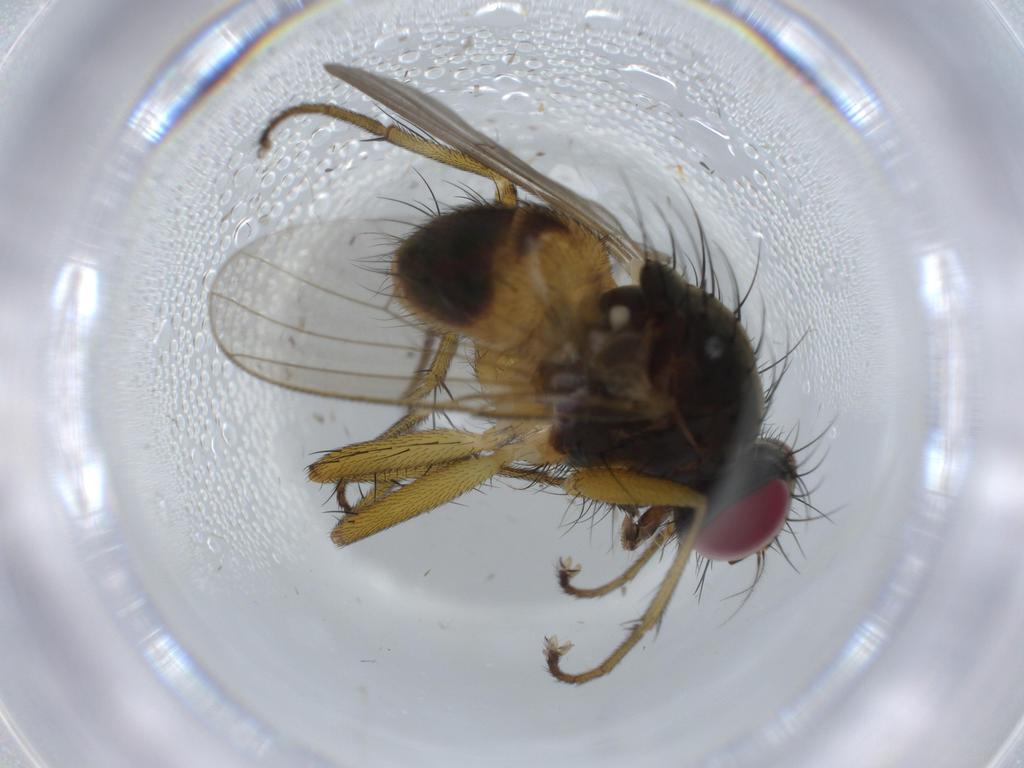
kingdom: Animalia
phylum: Arthropoda
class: Insecta
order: Diptera
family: Muscidae
